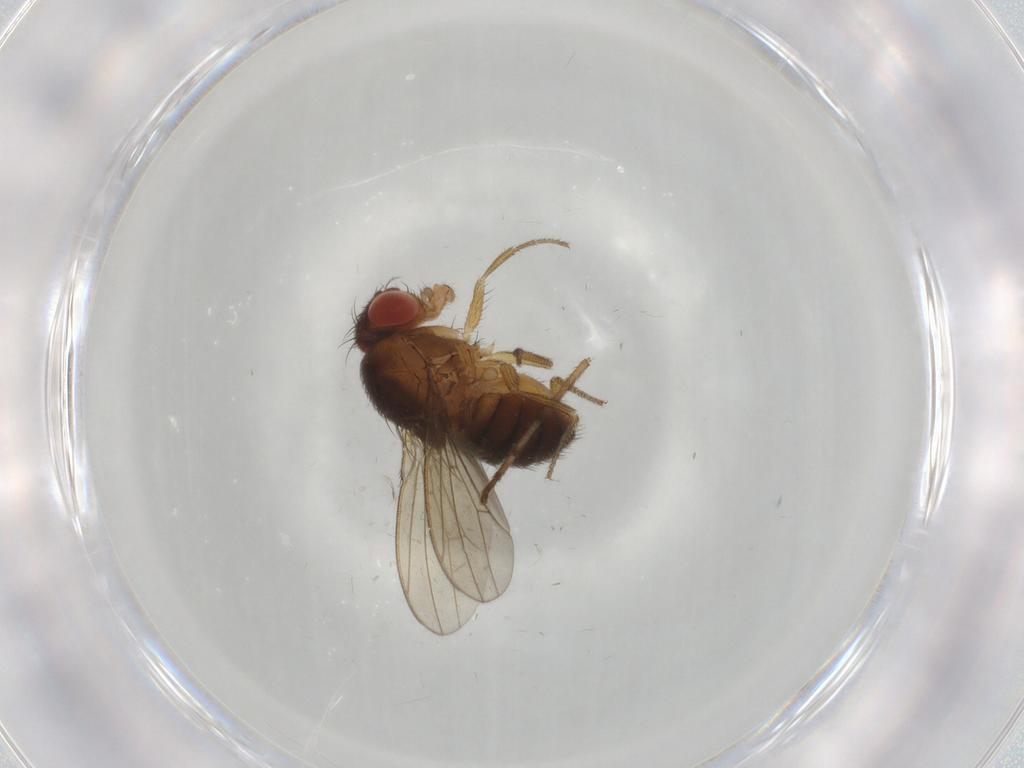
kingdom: Animalia
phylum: Arthropoda
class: Insecta
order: Diptera
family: Drosophilidae
